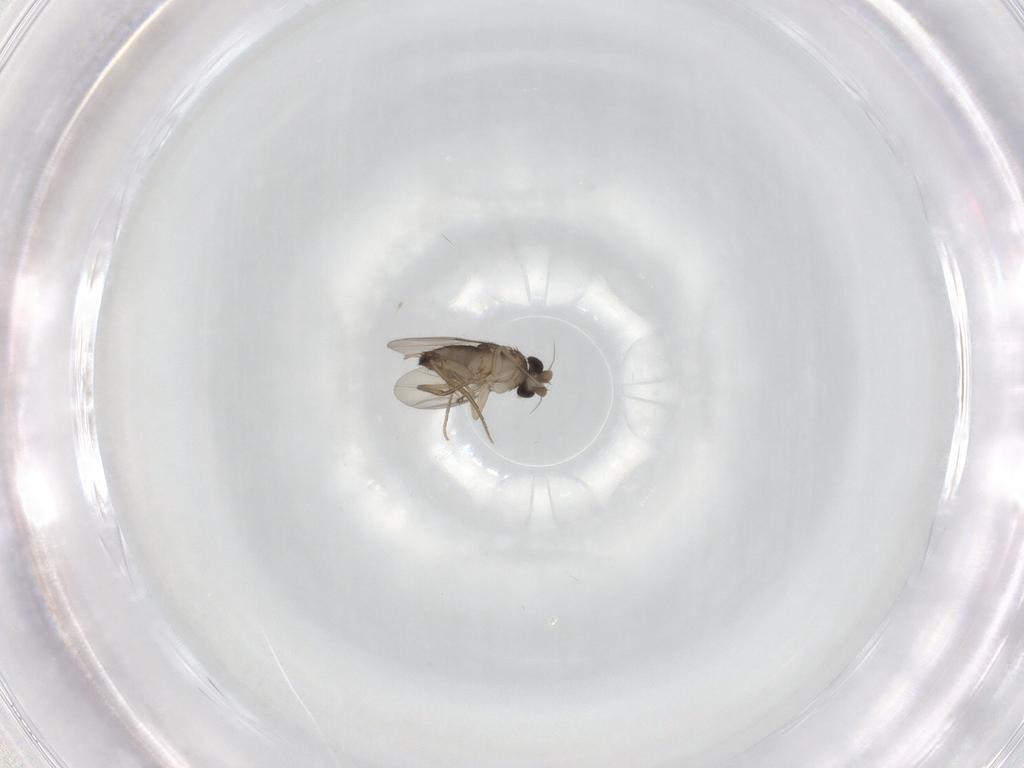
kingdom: Animalia
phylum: Arthropoda
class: Insecta
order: Diptera
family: Phoridae
